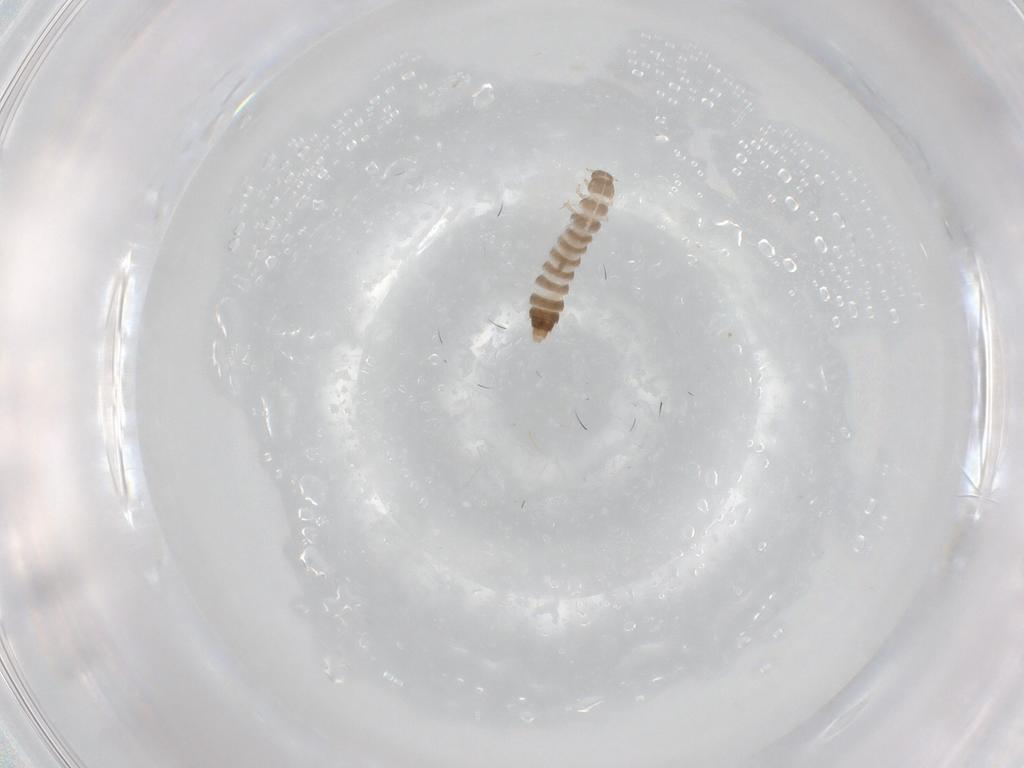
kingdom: Animalia
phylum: Arthropoda
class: Insecta
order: Coleoptera
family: Staphylinidae
